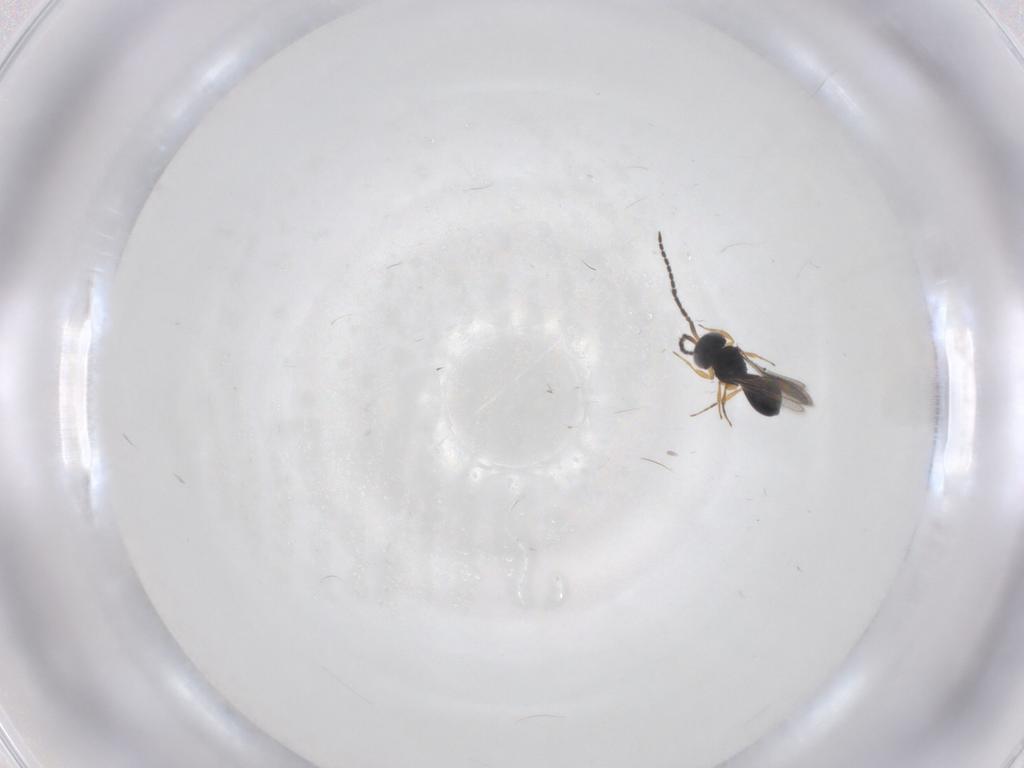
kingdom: Animalia
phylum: Arthropoda
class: Insecta
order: Hymenoptera
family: Scelionidae
